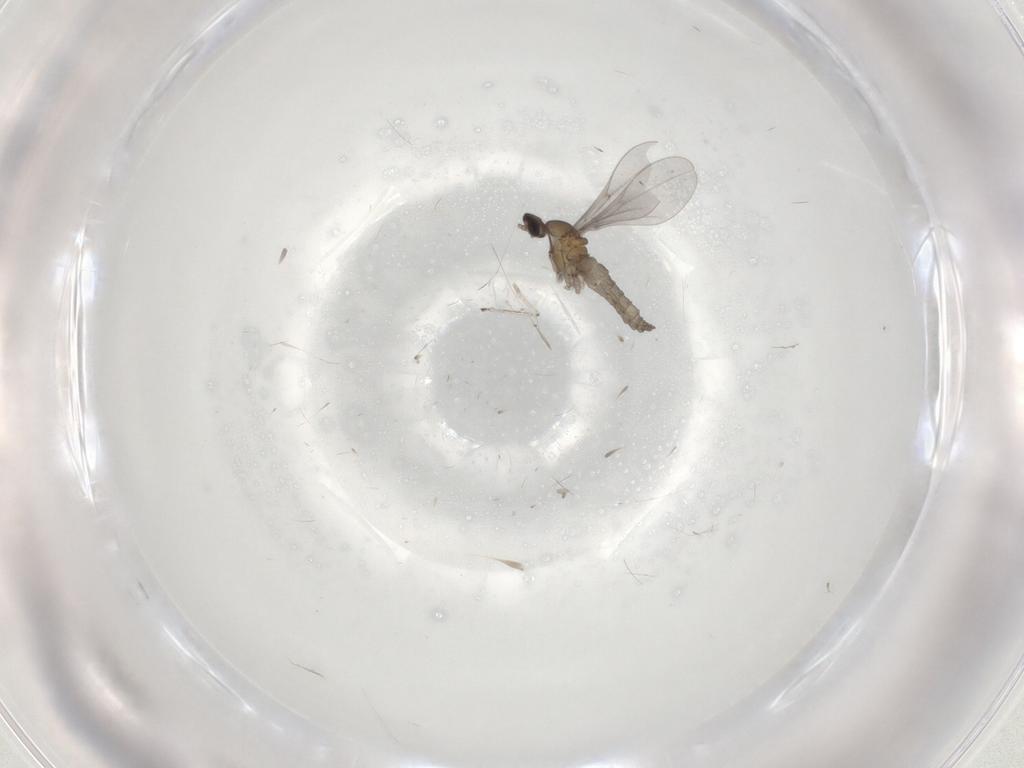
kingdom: Animalia
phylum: Arthropoda
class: Insecta
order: Diptera
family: Cecidomyiidae
